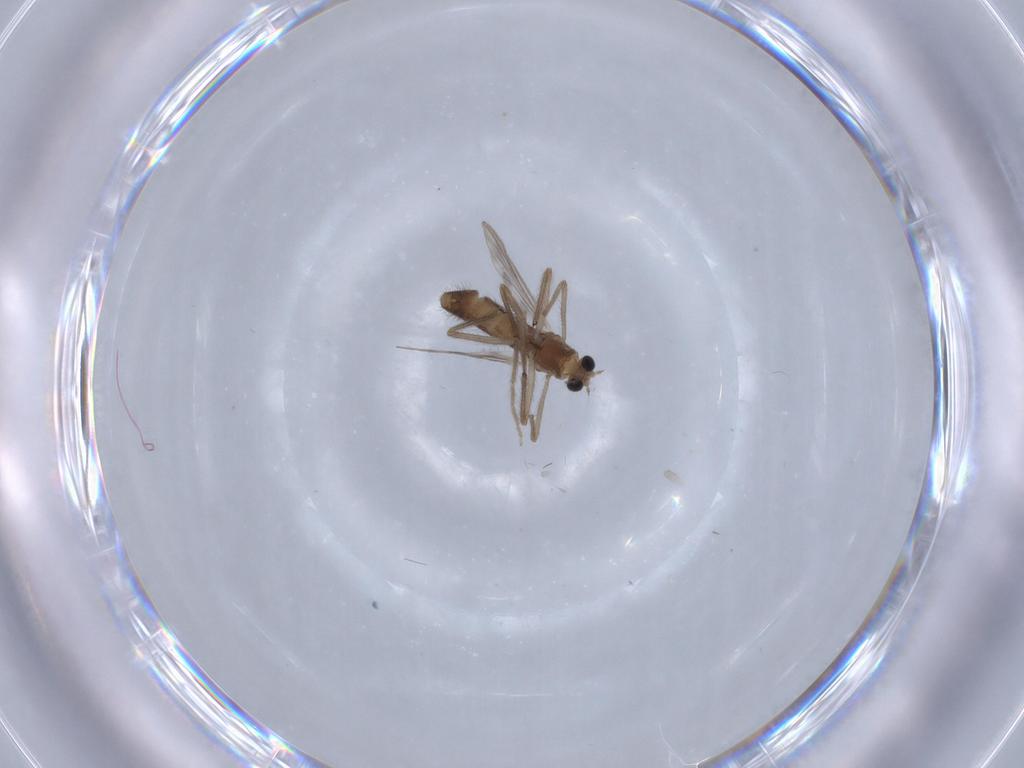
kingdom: Animalia
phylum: Arthropoda
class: Insecta
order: Diptera
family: Chironomidae
